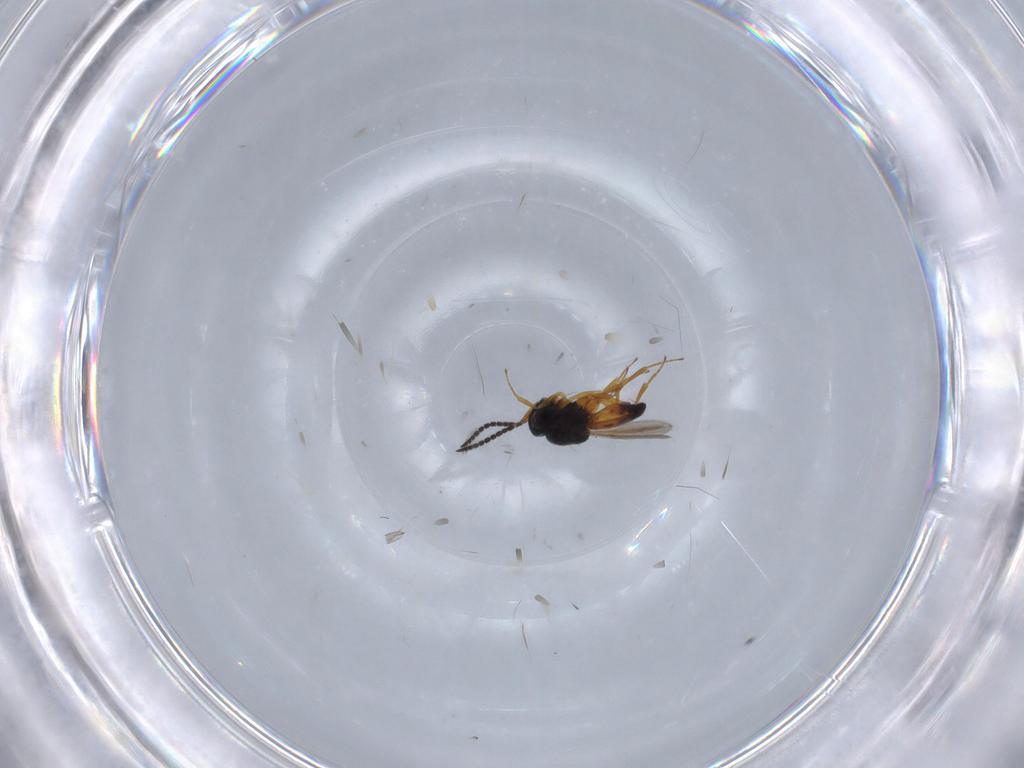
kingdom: Animalia
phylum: Arthropoda
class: Insecta
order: Hymenoptera
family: Scelionidae
